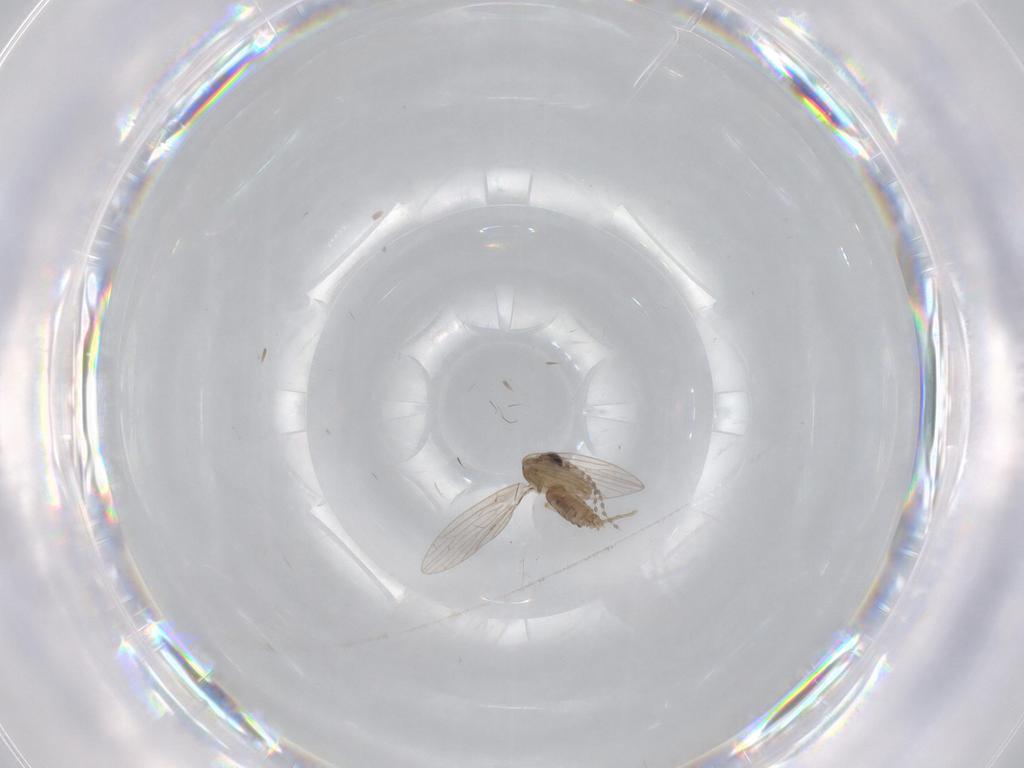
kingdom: Animalia
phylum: Arthropoda
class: Insecta
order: Diptera
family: Psychodidae
